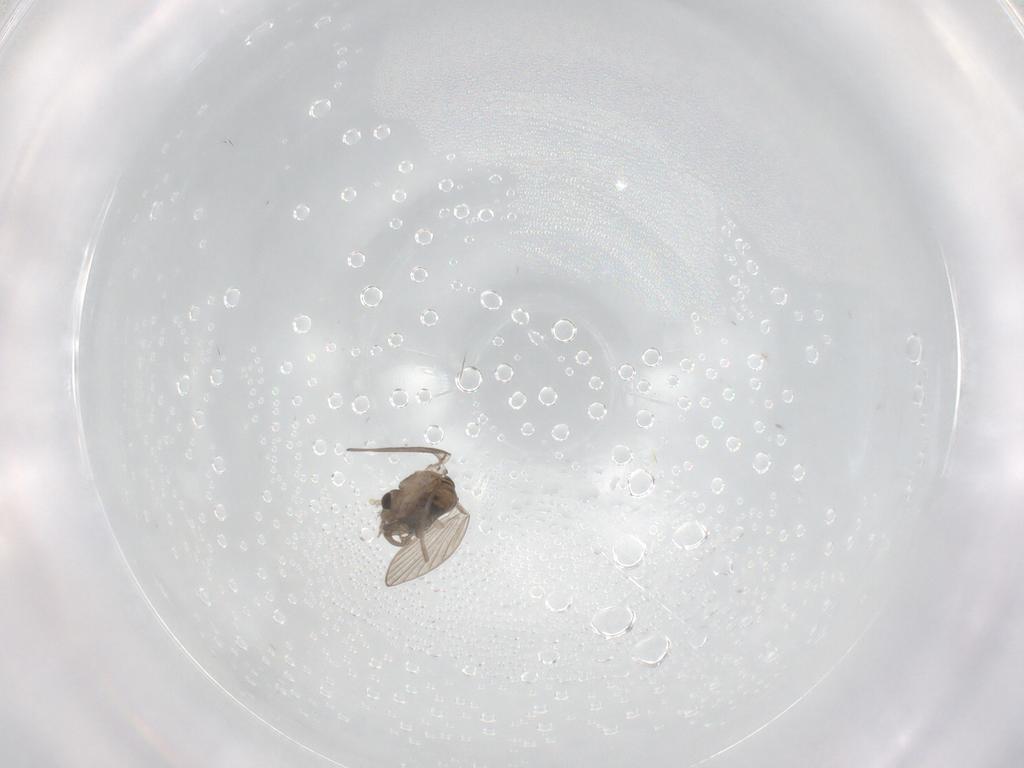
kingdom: Animalia
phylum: Arthropoda
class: Insecta
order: Diptera
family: Psychodidae
